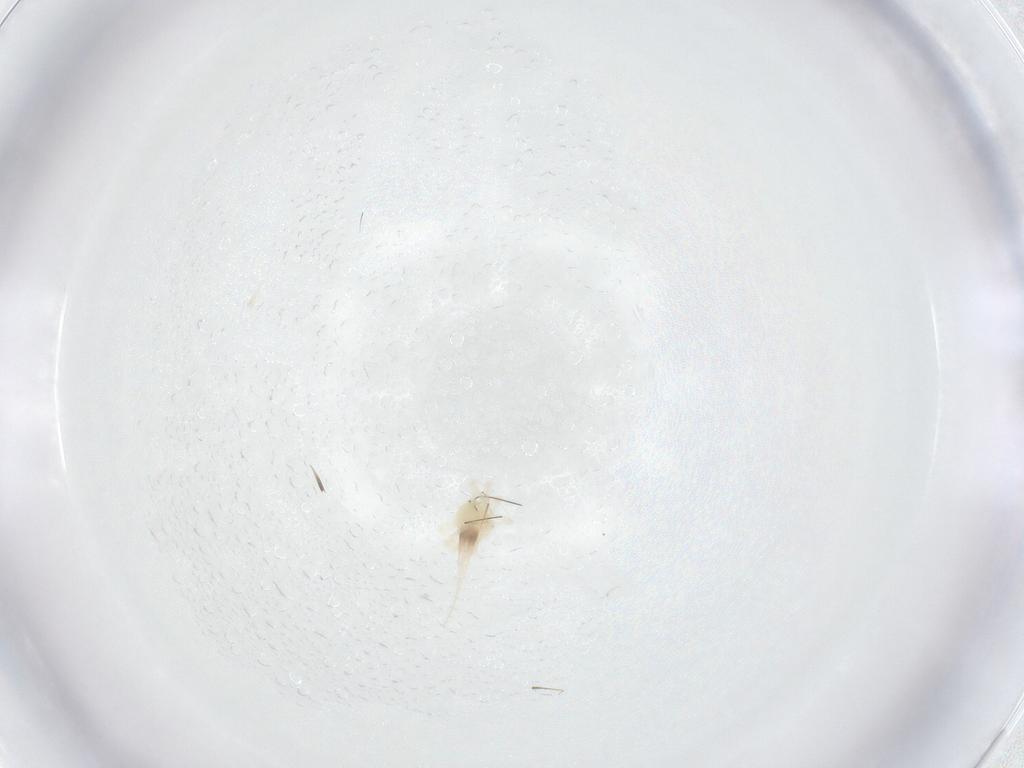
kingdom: Animalia
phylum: Arthropoda
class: Arachnida
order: Trombidiformes
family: Anystidae
